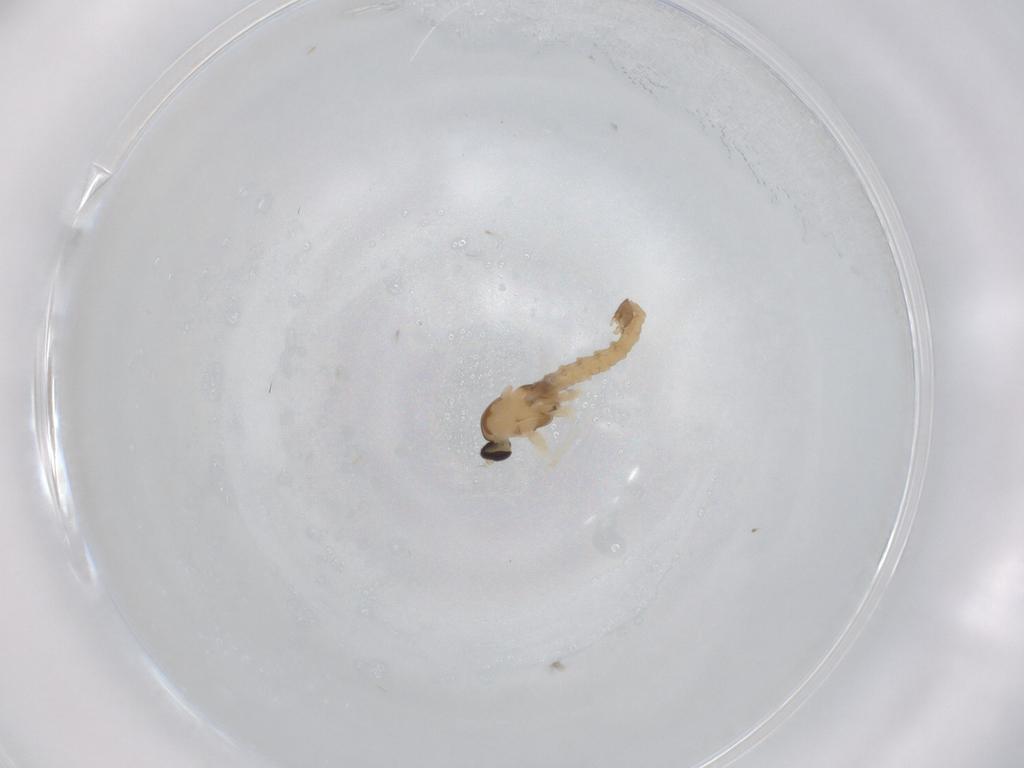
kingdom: Animalia
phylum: Arthropoda
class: Insecta
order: Diptera
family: Cecidomyiidae
